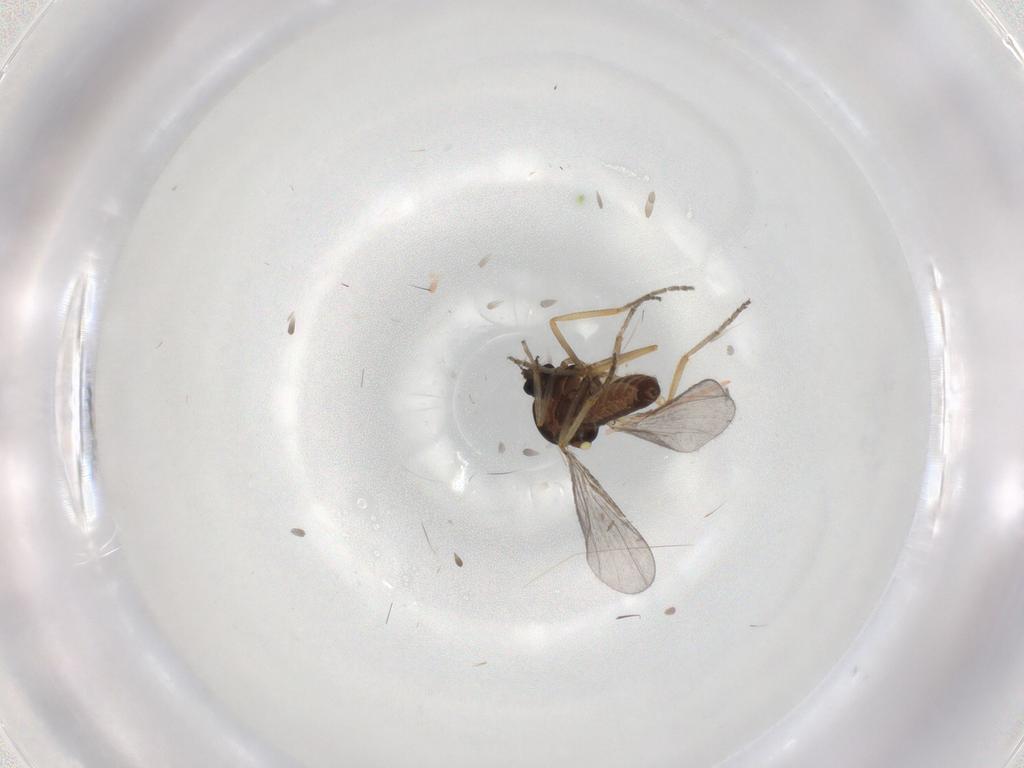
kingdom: Animalia
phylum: Arthropoda
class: Insecta
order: Diptera
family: Ceratopogonidae
